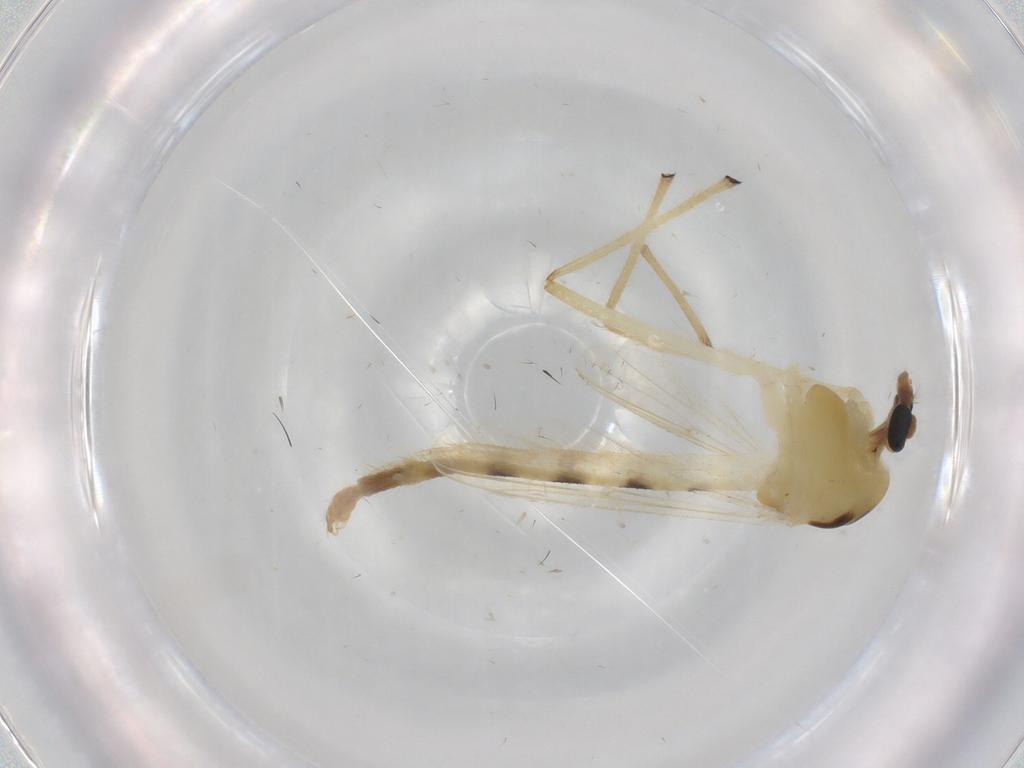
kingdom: Animalia
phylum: Arthropoda
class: Insecta
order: Diptera
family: Chironomidae
